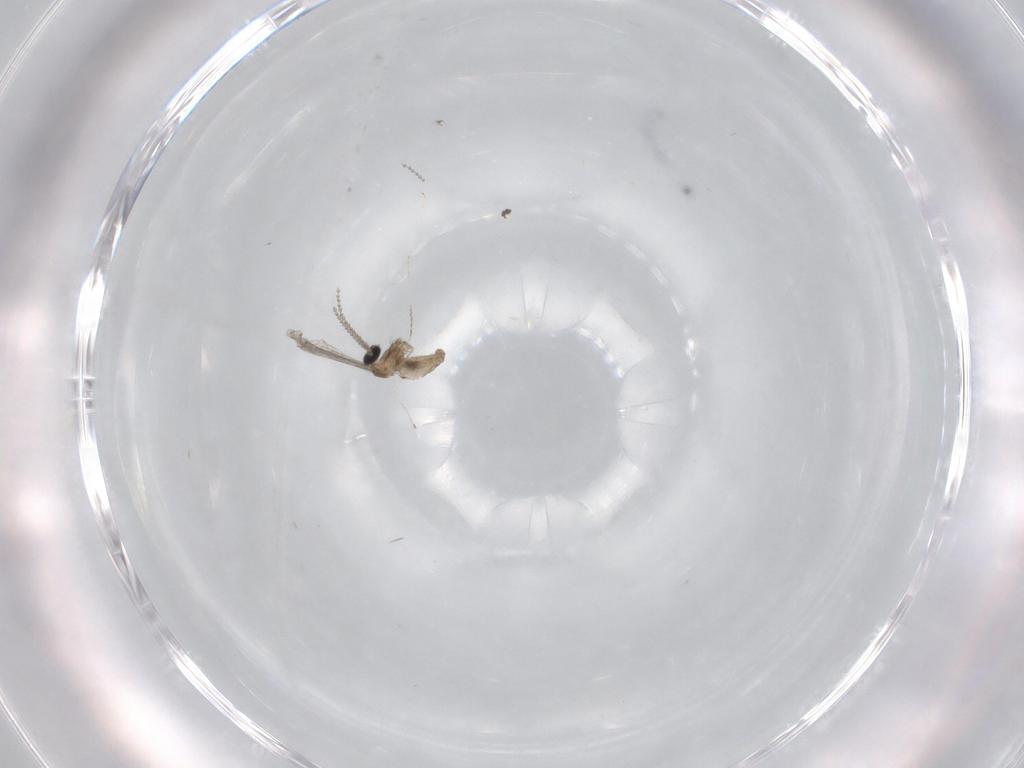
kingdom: Animalia
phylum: Arthropoda
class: Insecta
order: Diptera
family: Cecidomyiidae
